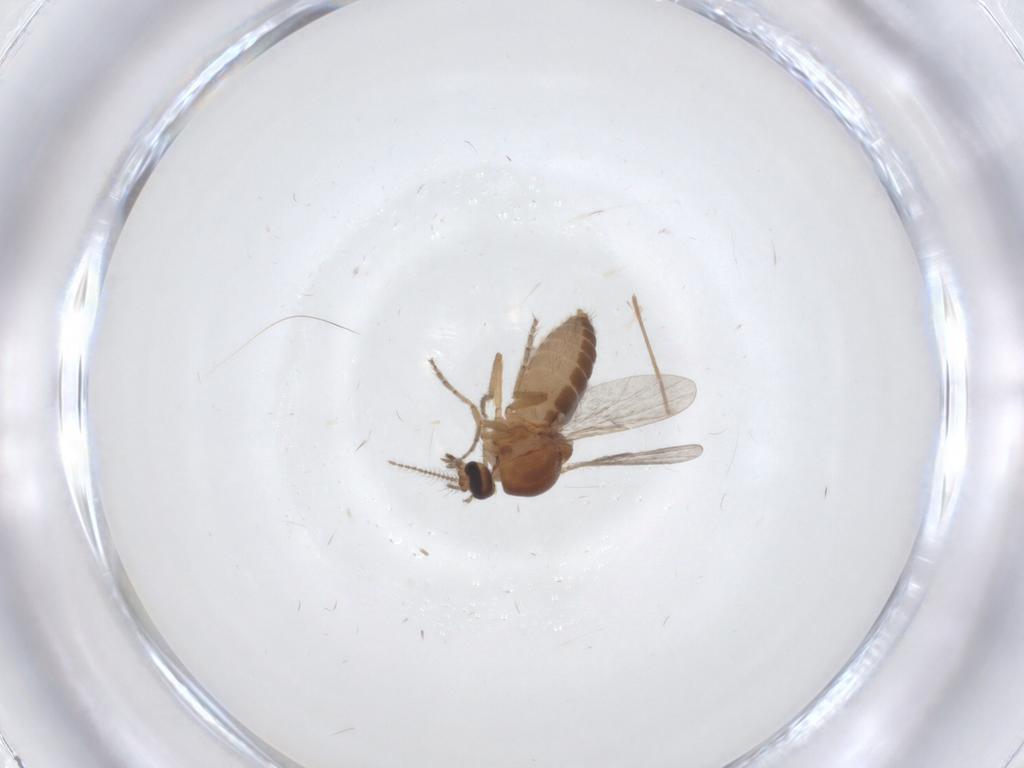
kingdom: Animalia
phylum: Arthropoda
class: Insecta
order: Diptera
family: Ceratopogonidae
